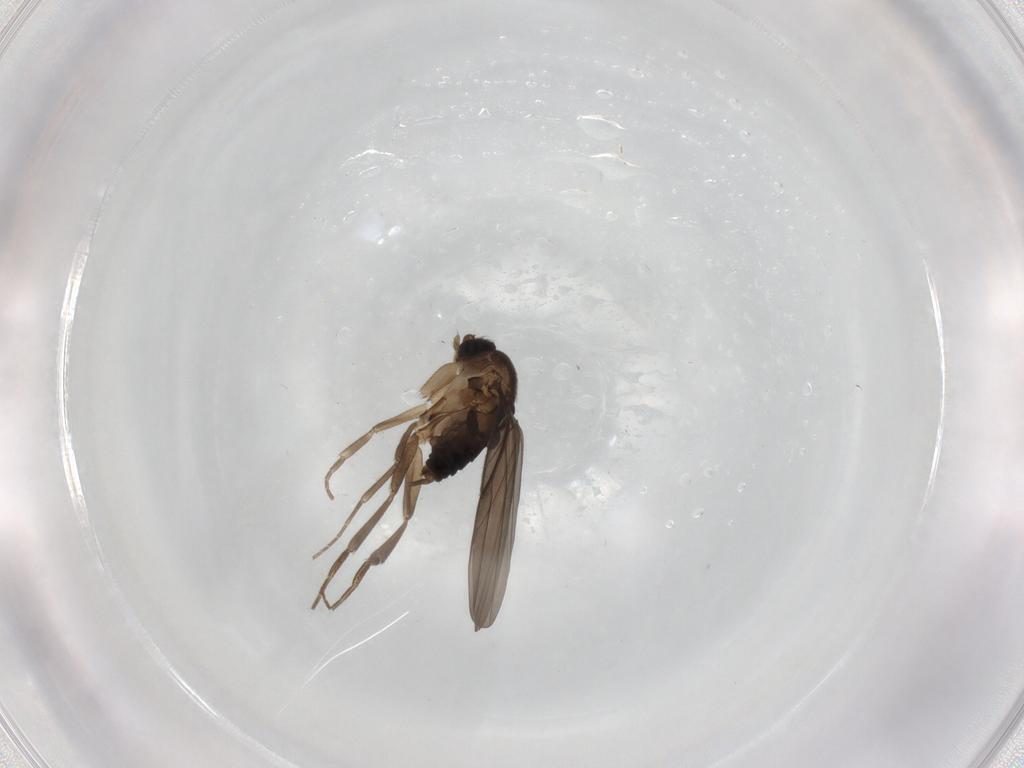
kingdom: Animalia
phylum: Arthropoda
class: Insecta
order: Diptera
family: Phoridae
